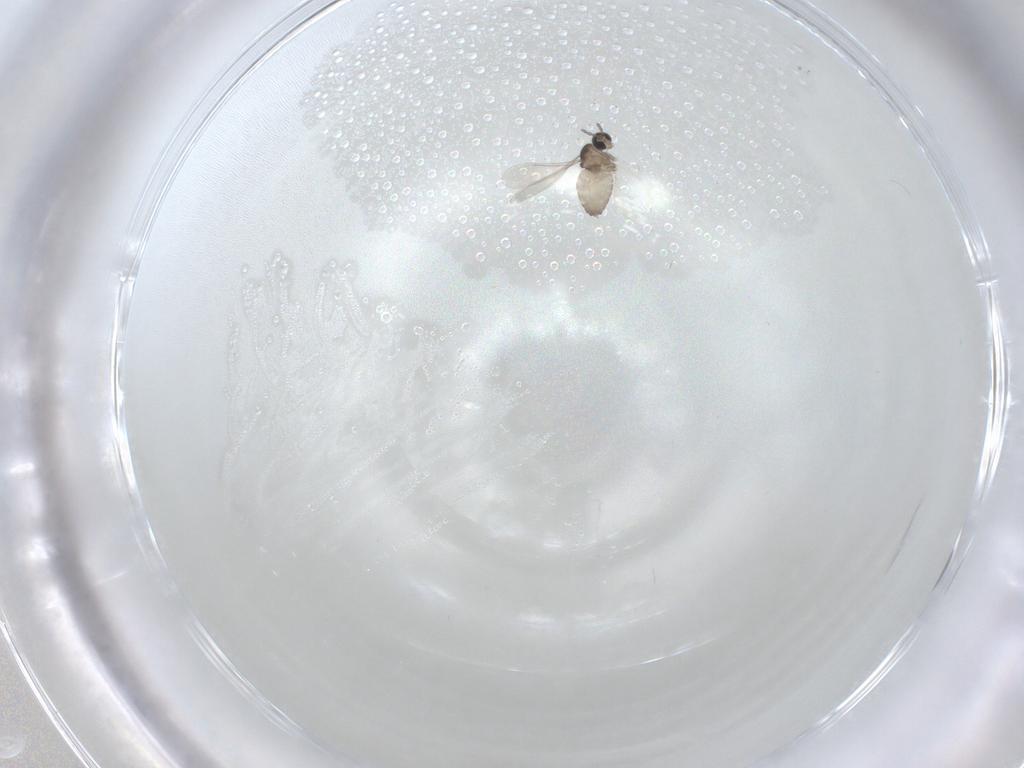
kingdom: Animalia
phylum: Arthropoda
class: Insecta
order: Diptera
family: Cecidomyiidae
